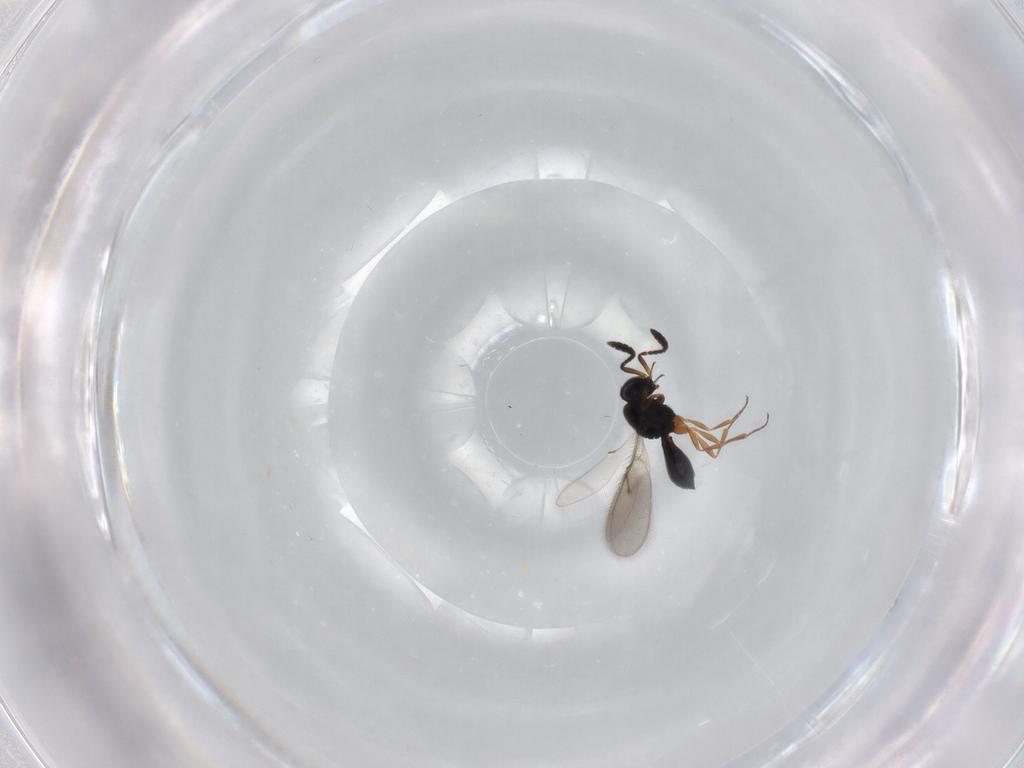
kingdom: Animalia
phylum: Arthropoda
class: Insecta
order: Hymenoptera
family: Scelionidae
